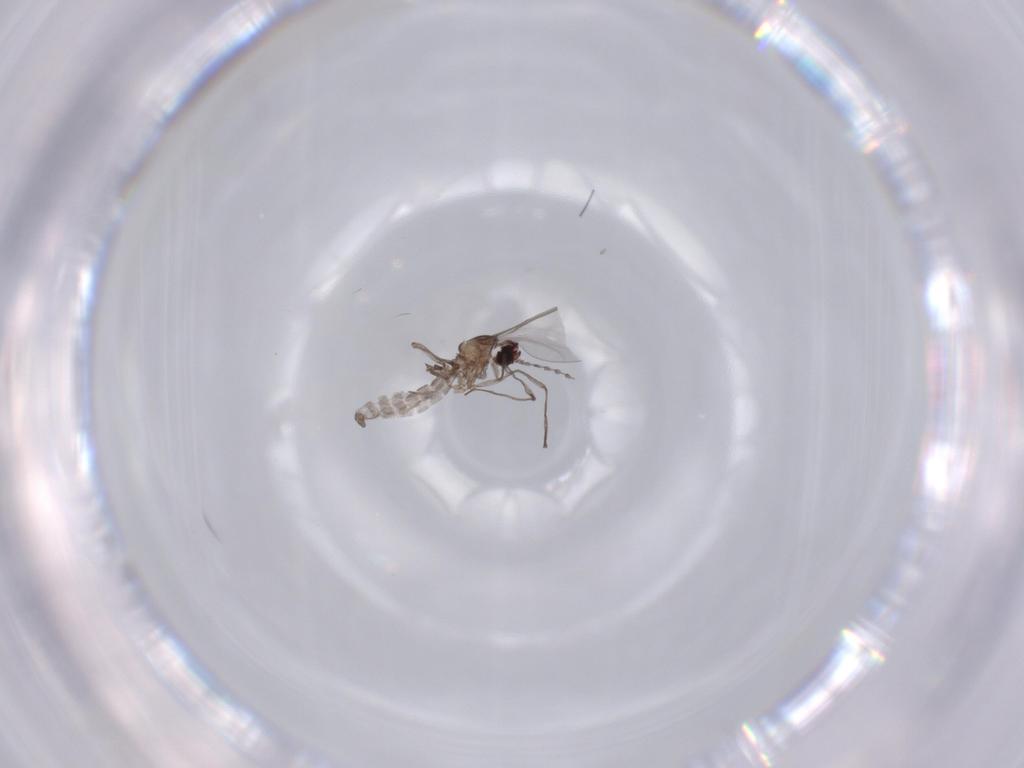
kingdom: Animalia
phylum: Arthropoda
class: Insecta
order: Diptera
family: Cecidomyiidae
